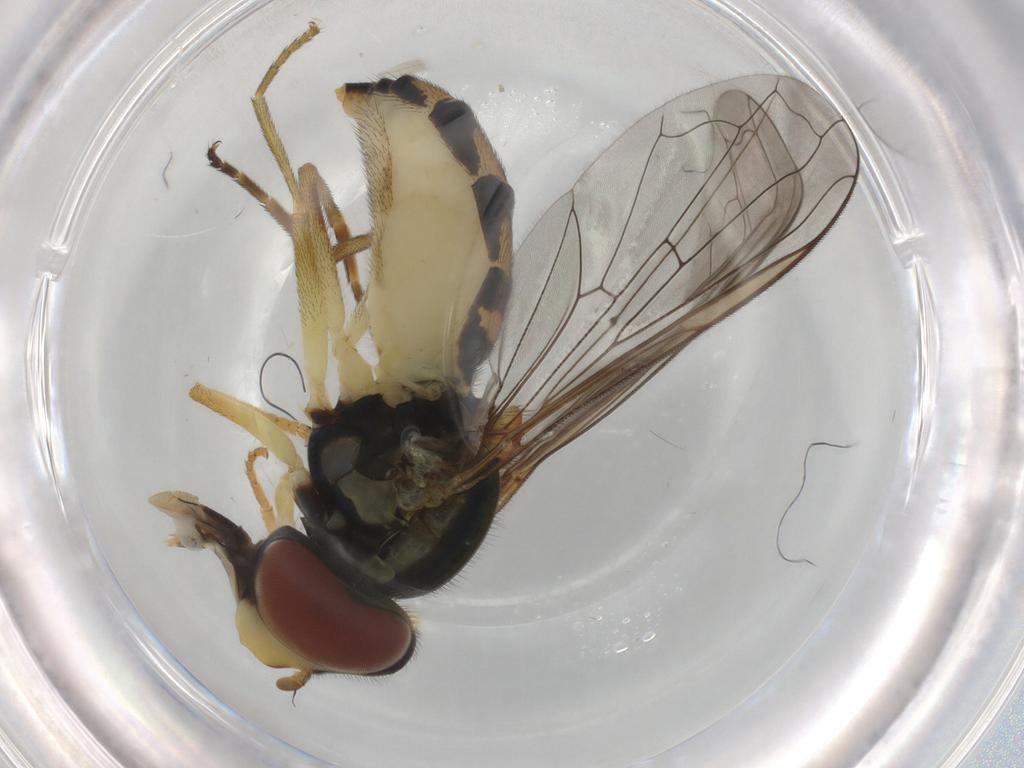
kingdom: Animalia
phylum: Arthropoda
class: Insecta
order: Diptera
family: Syrphidae
